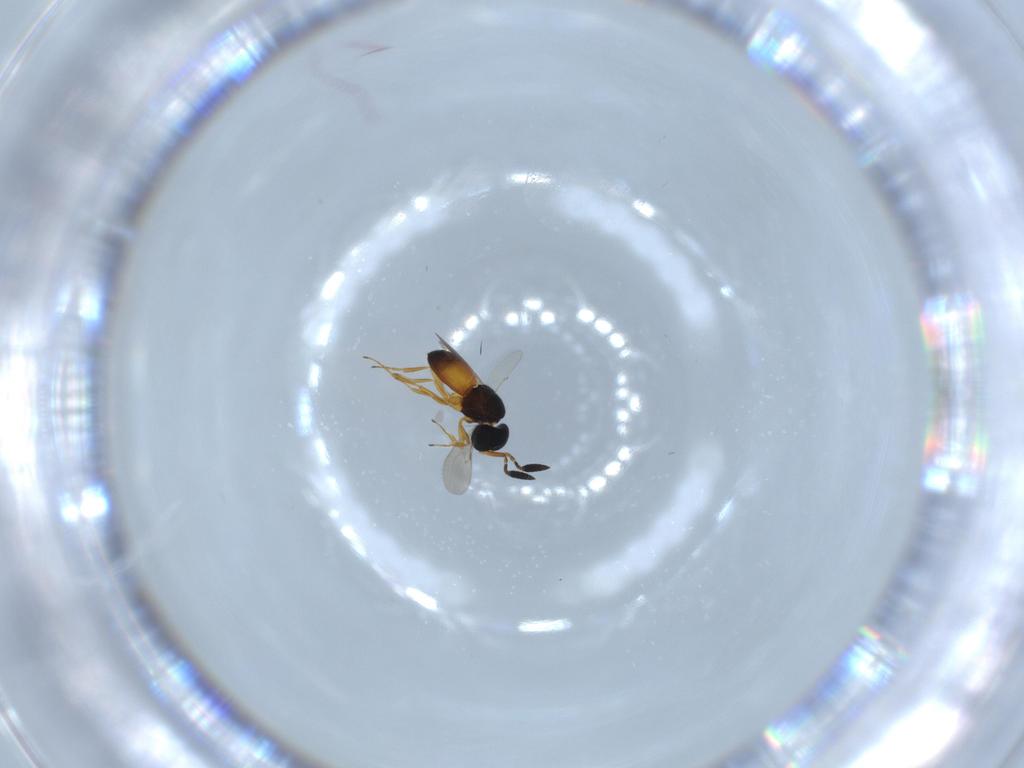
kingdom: Animalia
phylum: Arthropoda
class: Insecta
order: Hymenoptera
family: Scelionidae
